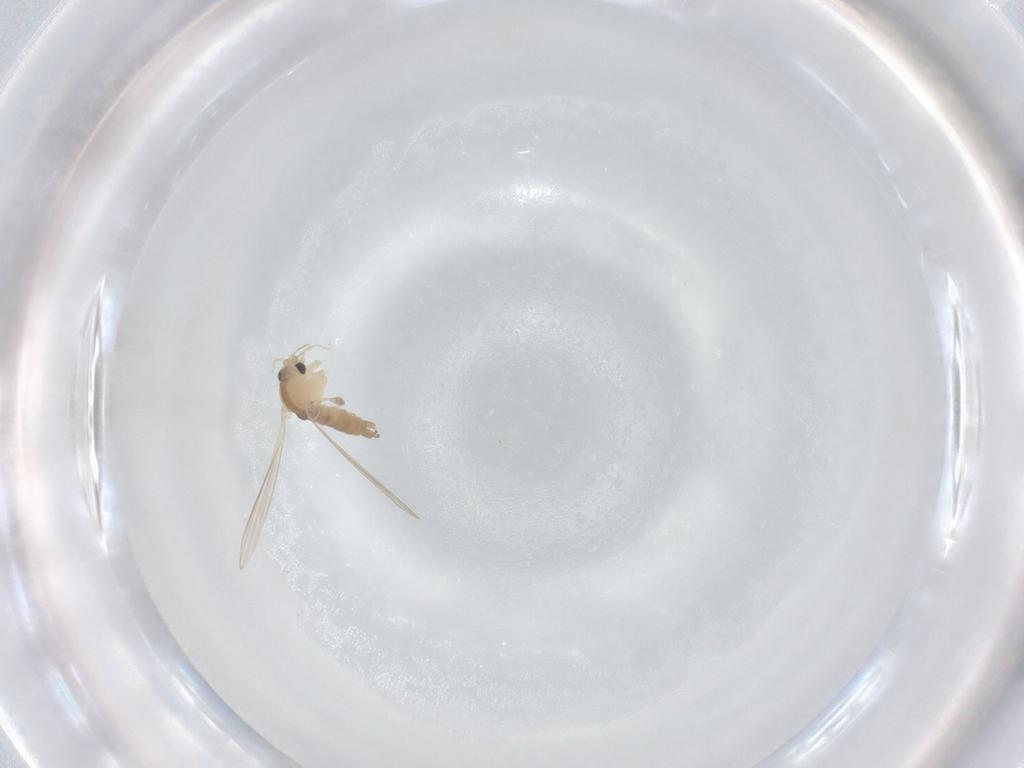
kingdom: Animalia
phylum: Arthropoda
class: Insecta
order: Diptera
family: Psychodidae
